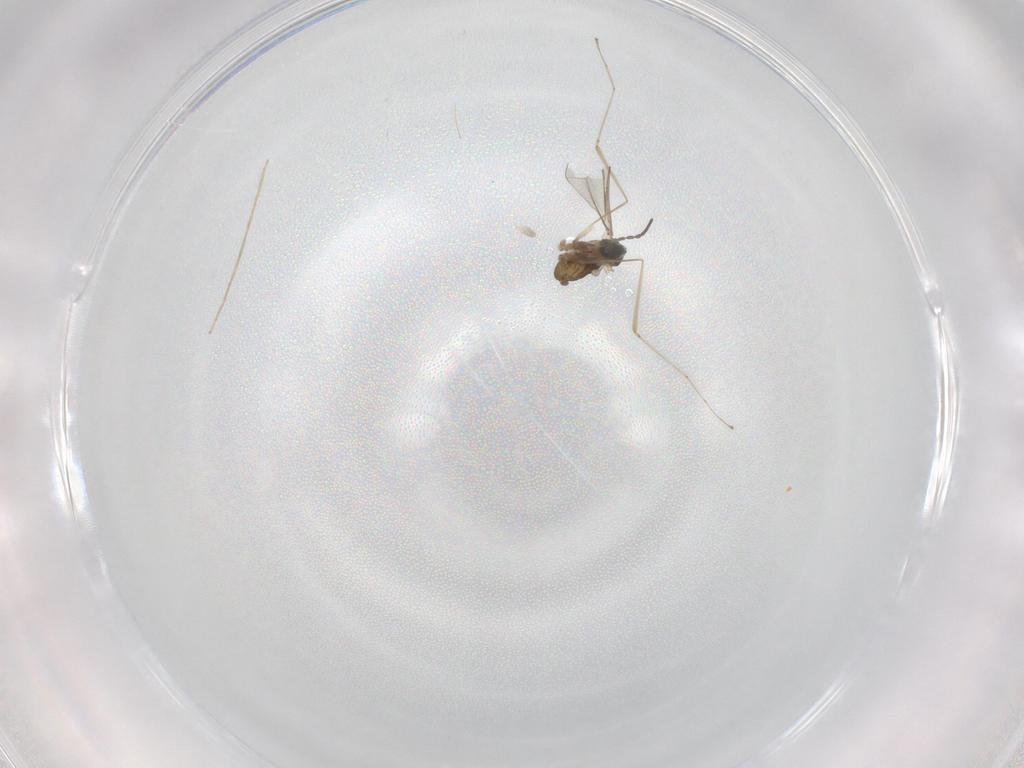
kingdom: Animalia
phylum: Arthropoda
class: Insecta
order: Diptera
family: Chironomidae
